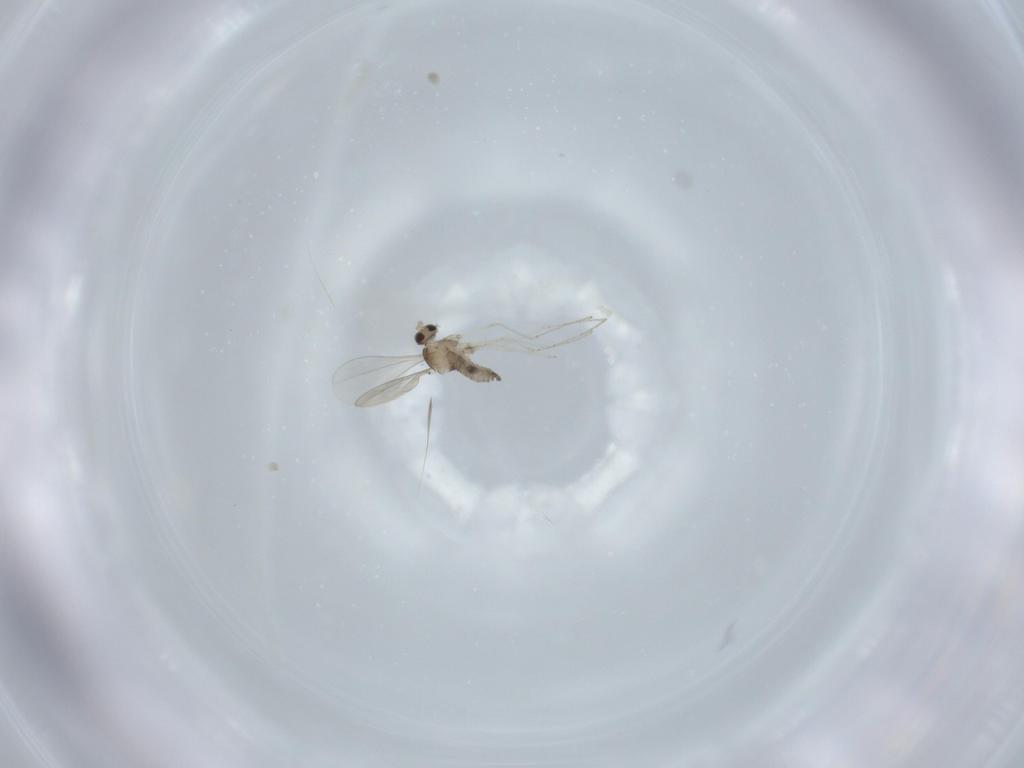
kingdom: Animalia
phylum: Arthropoda
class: Insecta
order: Diptera
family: Cecidomyiidae
